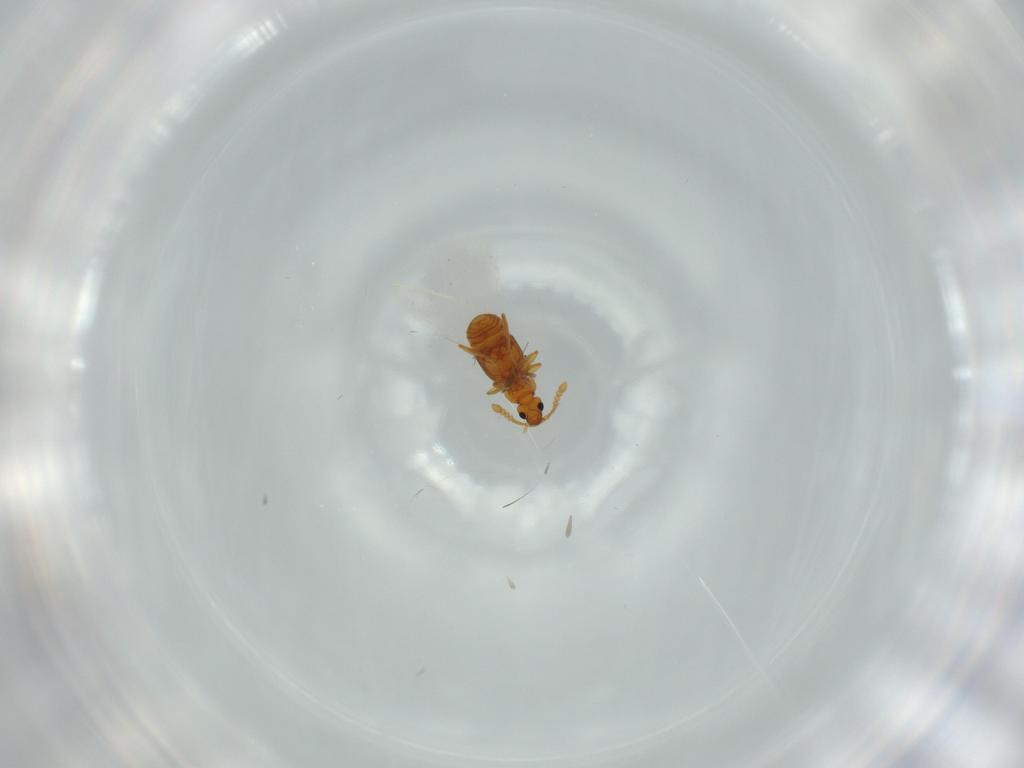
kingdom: Animalia
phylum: Arthropoda
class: Insecta
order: Coleoptera
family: Staphylinidae
